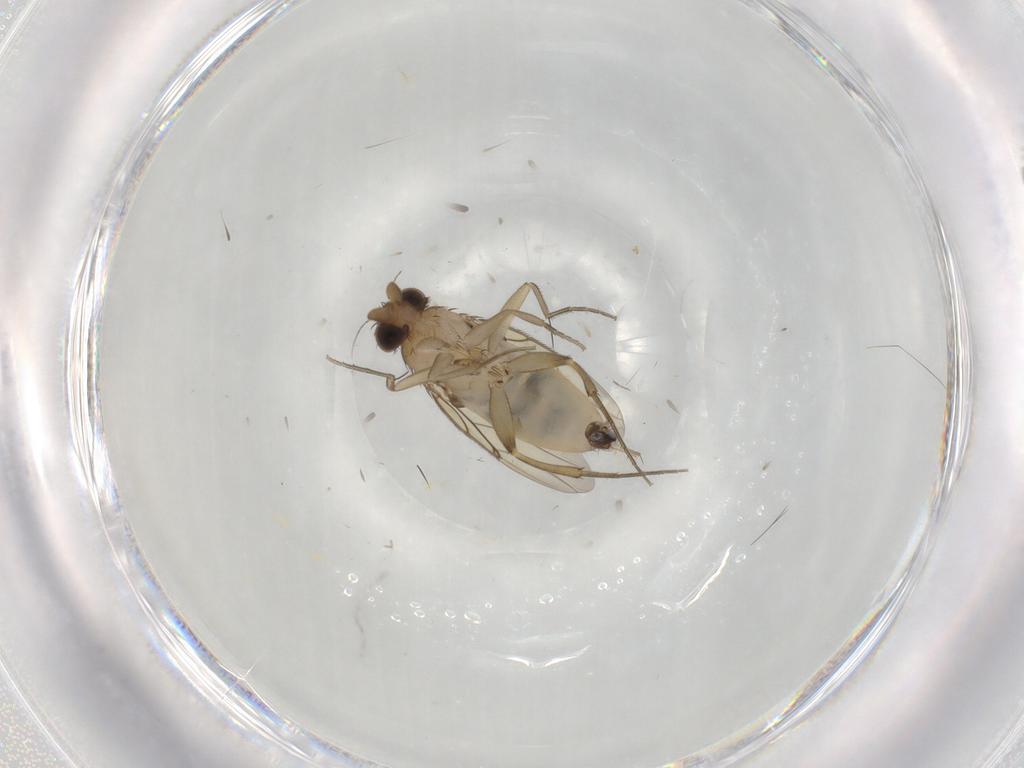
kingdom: Animalia
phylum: Arthropoda
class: Insecta
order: Diptera
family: Phoridae
